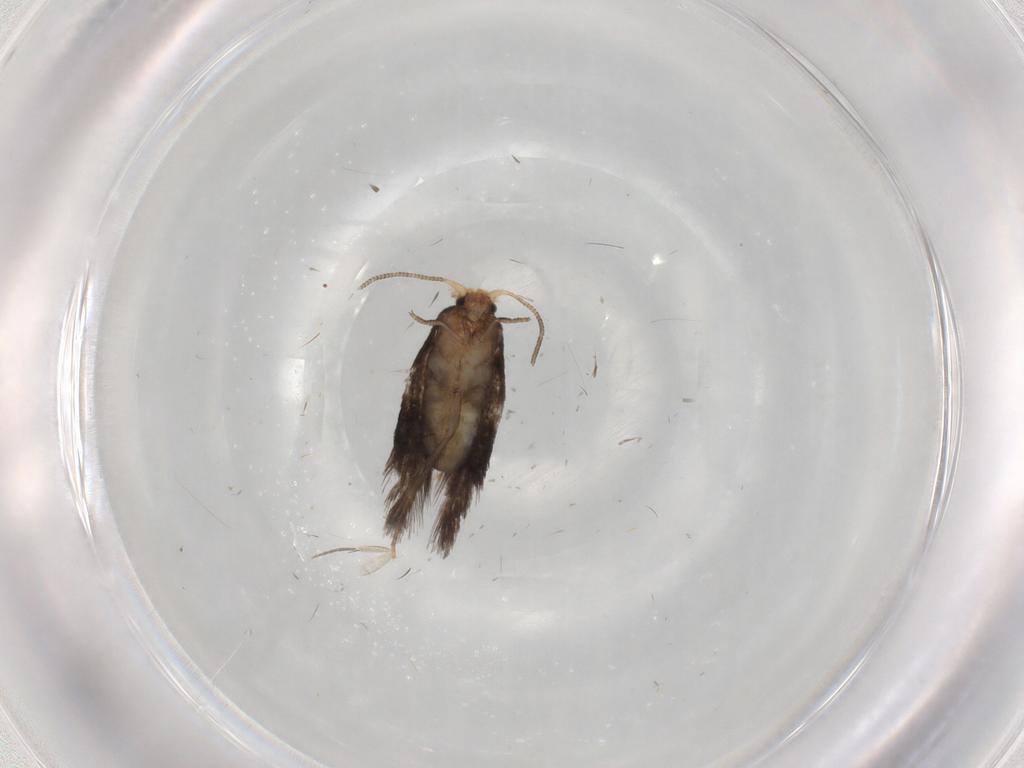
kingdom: Animalia
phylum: Arthropoda
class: Insecta
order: Lepidoptera
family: Nepticulidae
